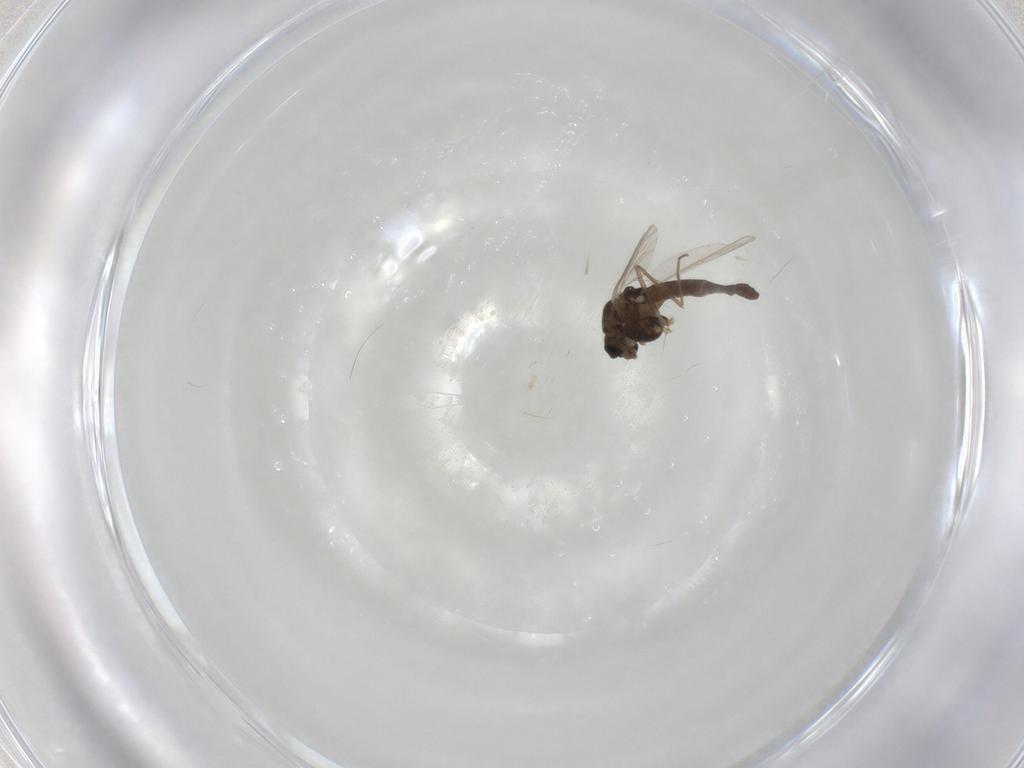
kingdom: Animalia
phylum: Arthropoda
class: Insecta
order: Diptera
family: Chironomidae
